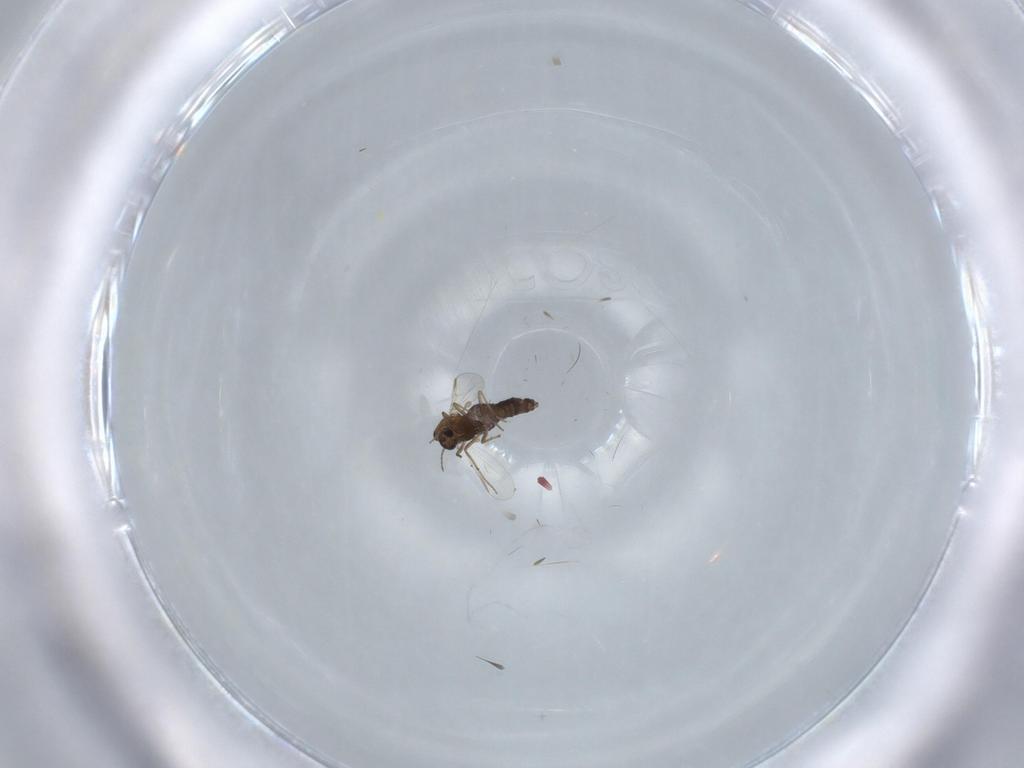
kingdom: Animalia
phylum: Arthropoda
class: Insecta
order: Diptera
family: Chironomidae
